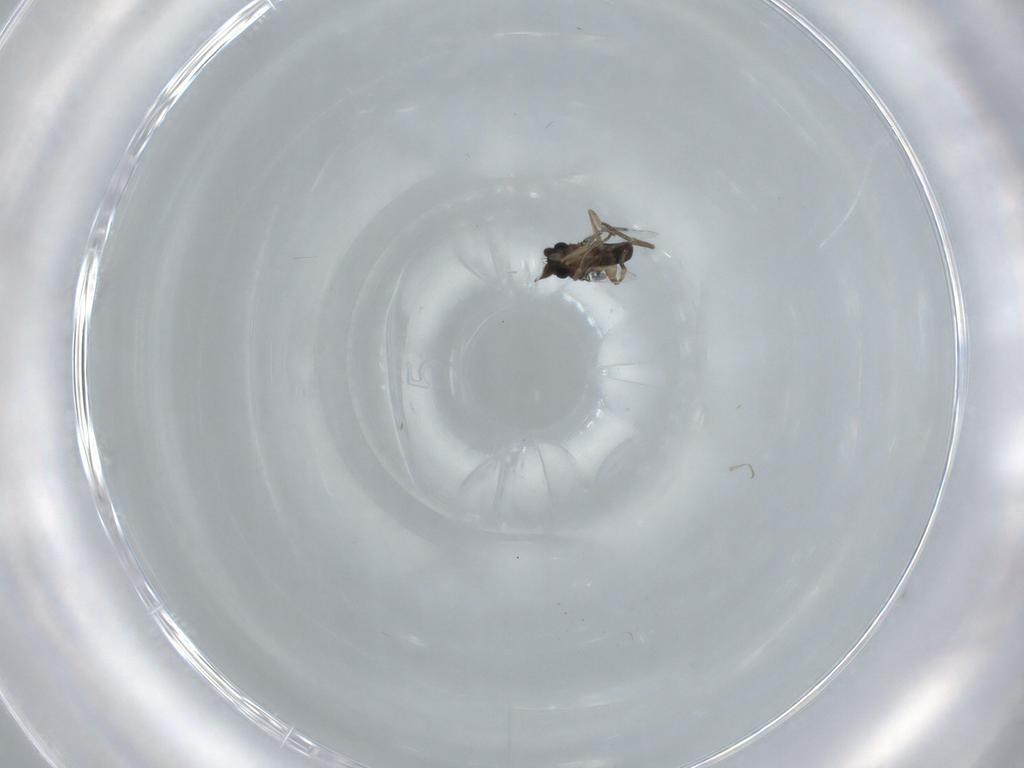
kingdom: Animalia
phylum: Arthropoda
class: Insecta
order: Diptera
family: Phoridae
